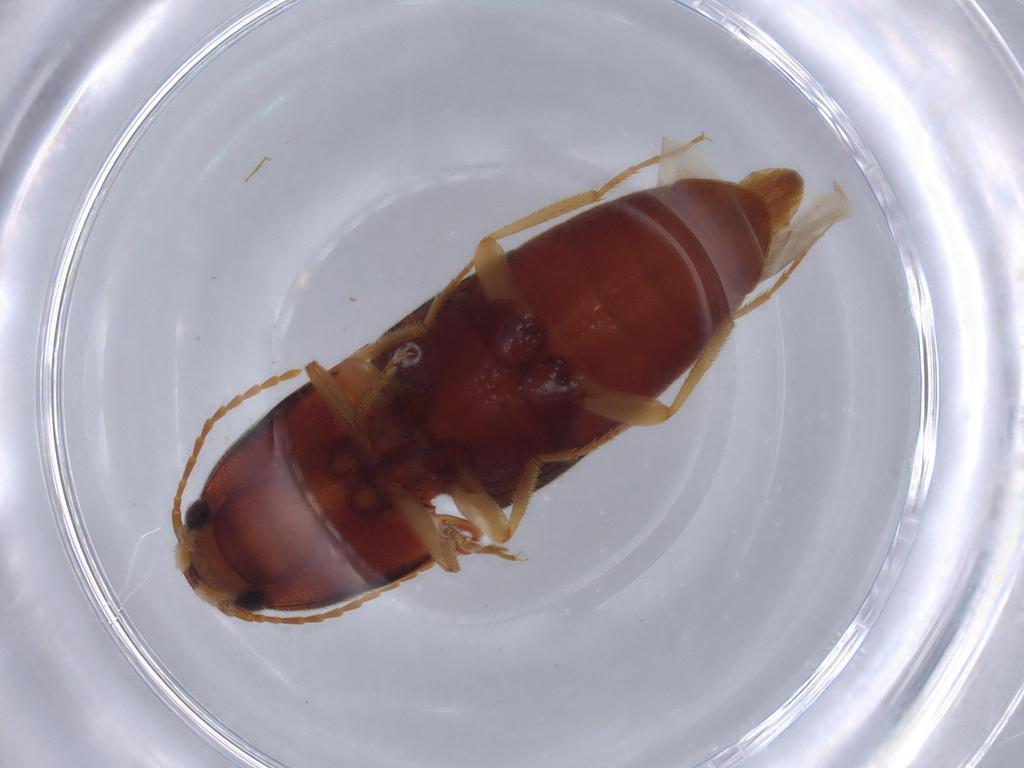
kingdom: Animalia
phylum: Arthropoda
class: Insecta
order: Coleoptera
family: Elateridae
